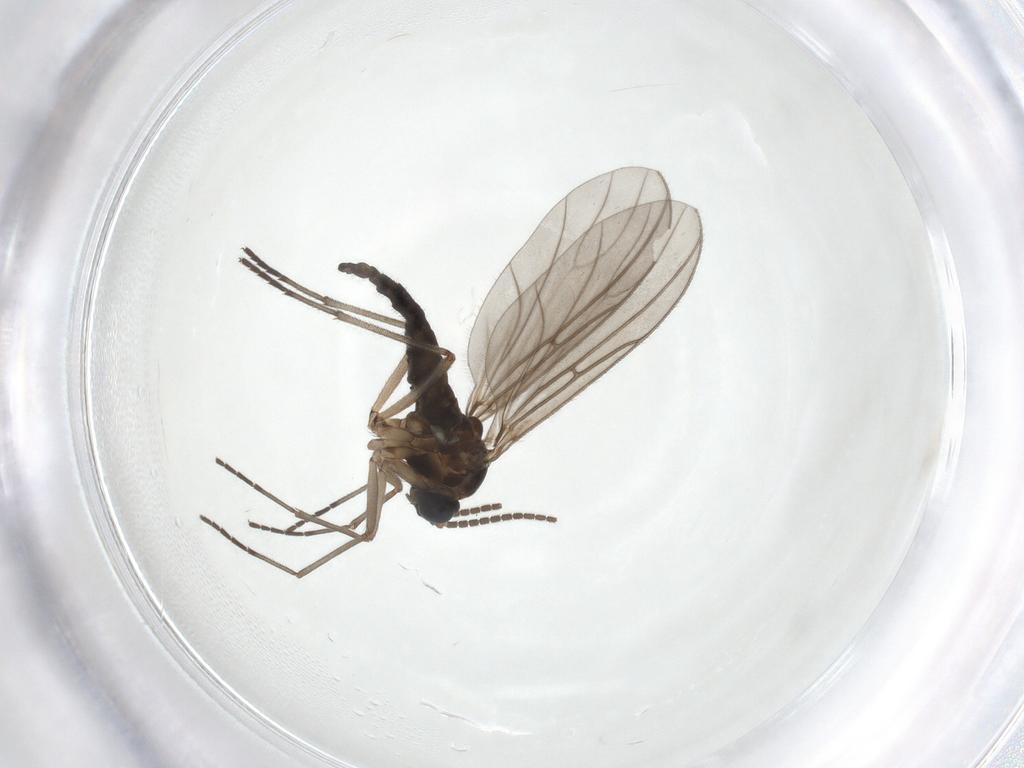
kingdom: Animalia
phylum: Arthropoda
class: Insecta
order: Diptera
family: Sciaridae
